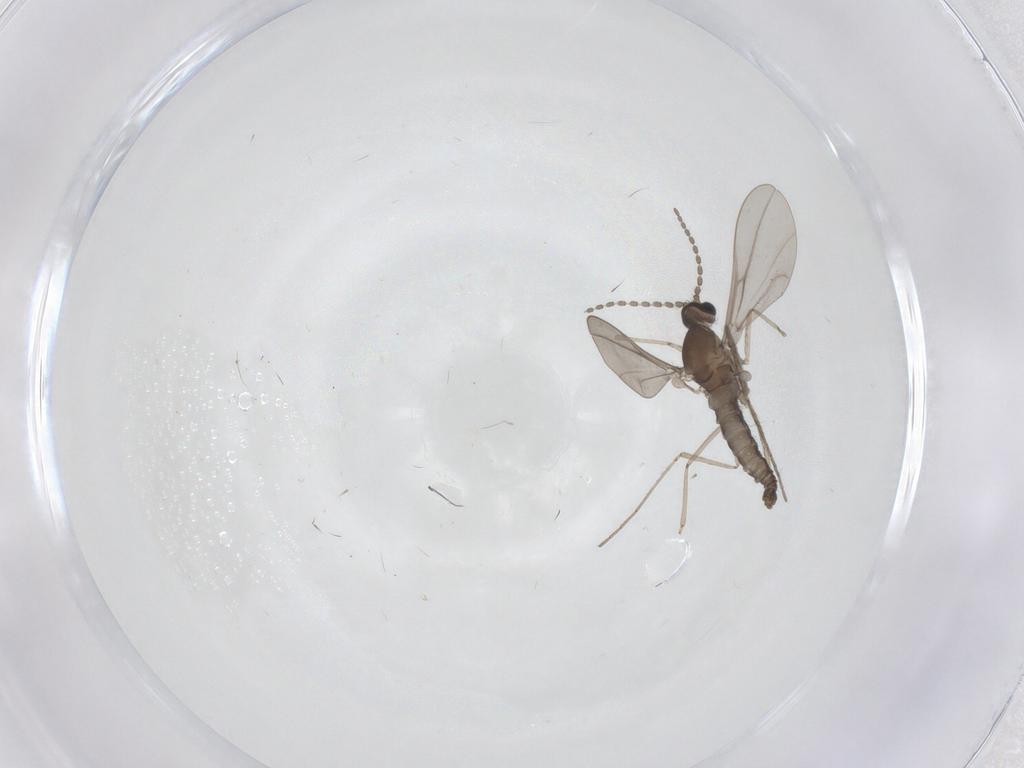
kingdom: Animalia
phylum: Arthropoda
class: Insecta
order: Diptera
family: Cecidomyiidae
